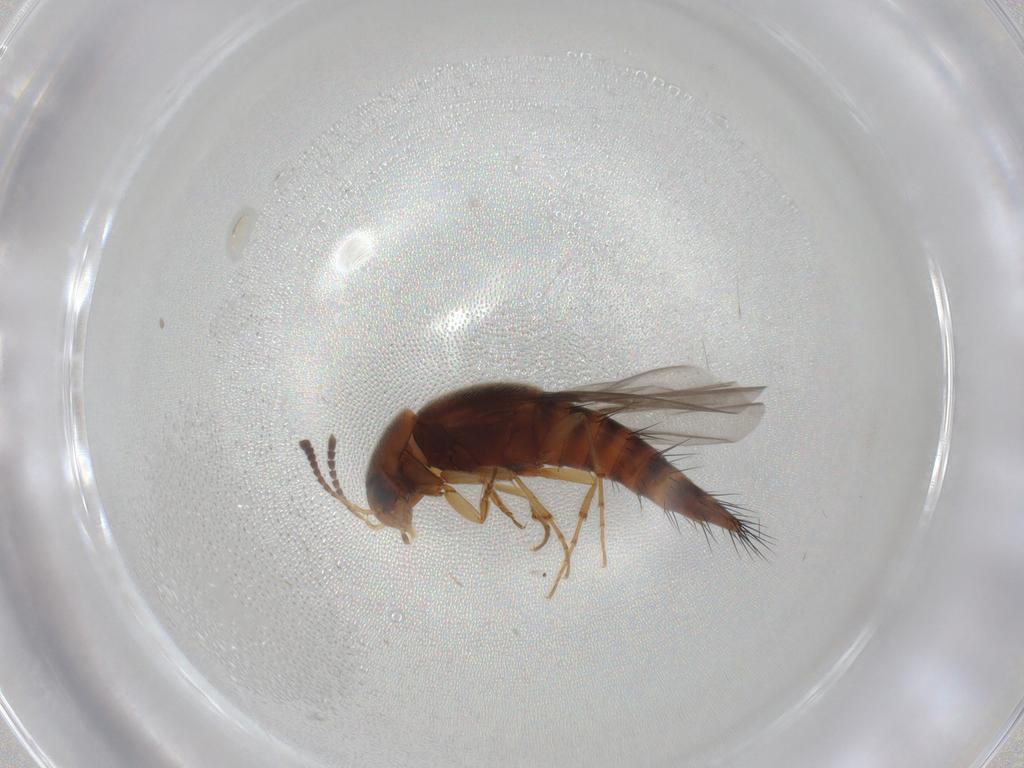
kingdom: Animalia
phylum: Arthropoda
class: Insecta
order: Coleoptera
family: Staphylinidae
